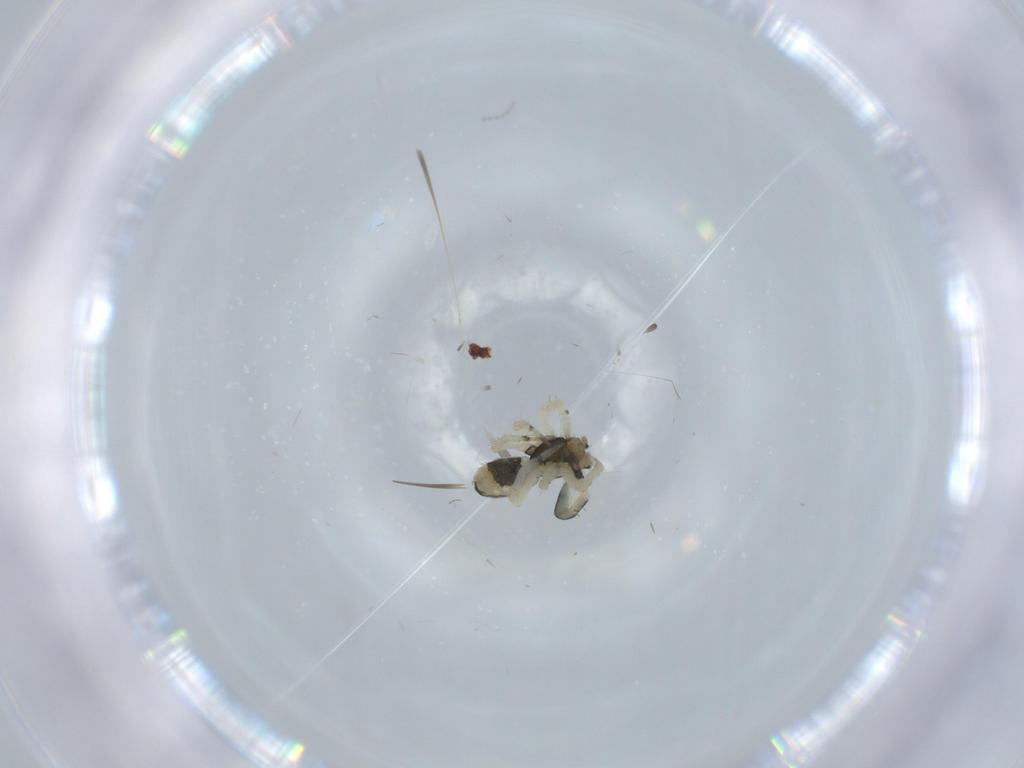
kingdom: Animalia
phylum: Arthropoda
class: Arachnida
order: Araneae
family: Uloboridae
